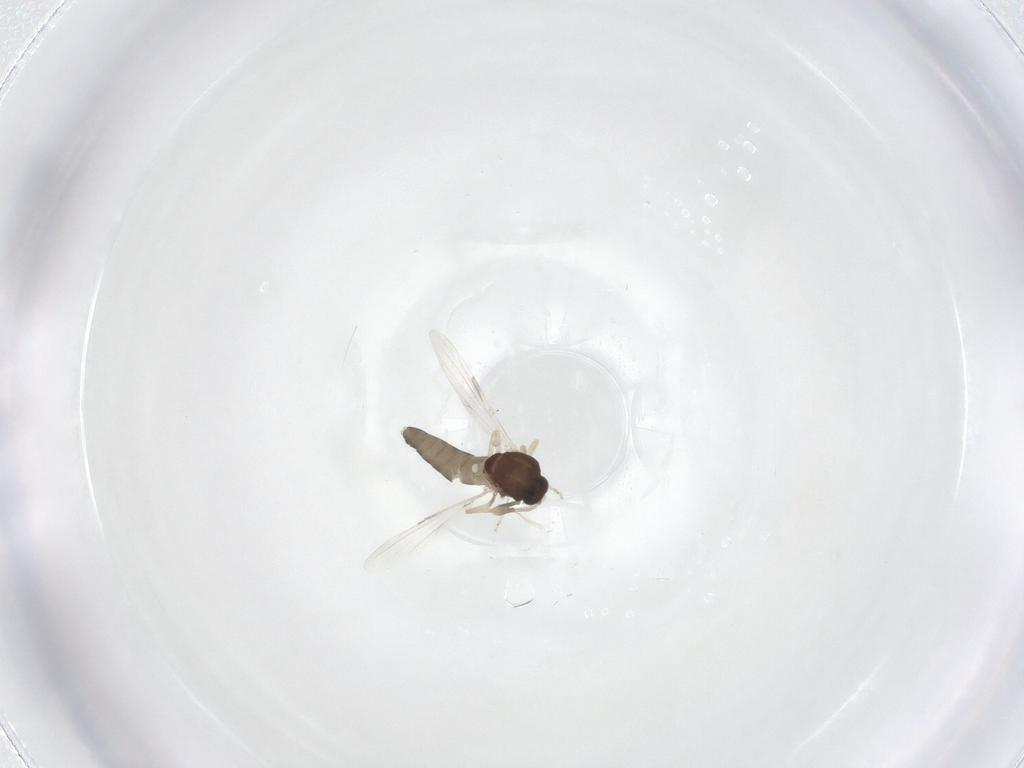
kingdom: Animalia
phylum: Arthropoda
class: Insecta
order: Diptera
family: Ceratopogonidae
